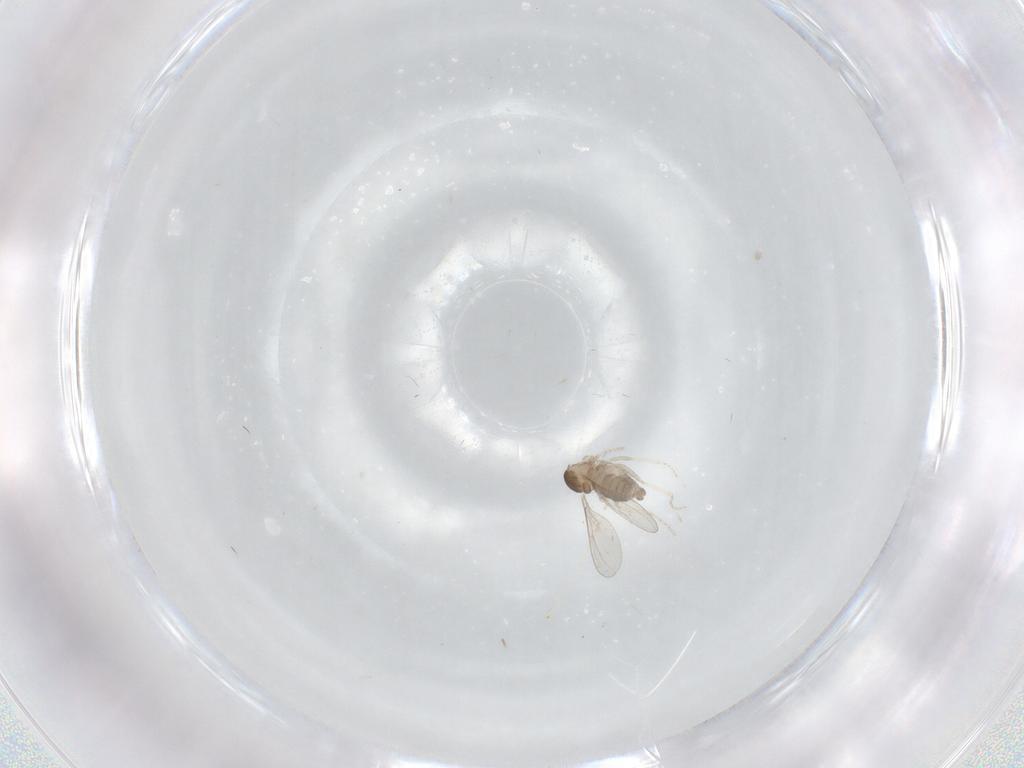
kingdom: Animalia
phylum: Arthropoda
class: Insecta
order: Diptera
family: Cecidomyiidae
